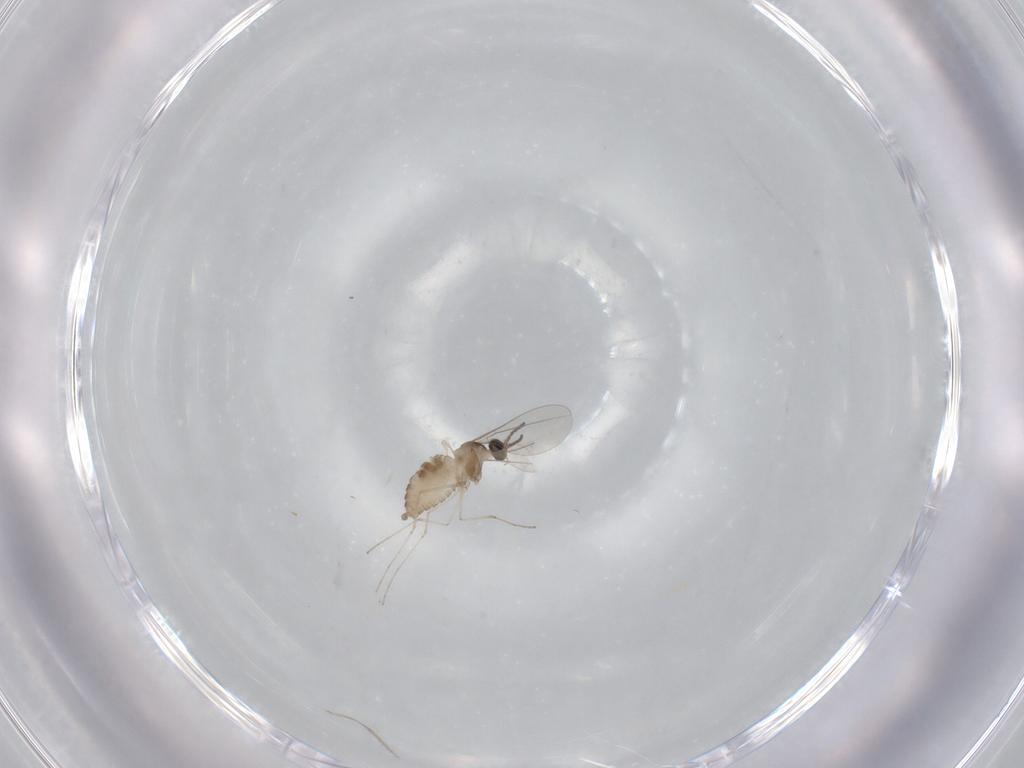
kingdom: Animalia
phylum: Arthropoda
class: Insecta
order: Diptera
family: Cecidomyiidae
